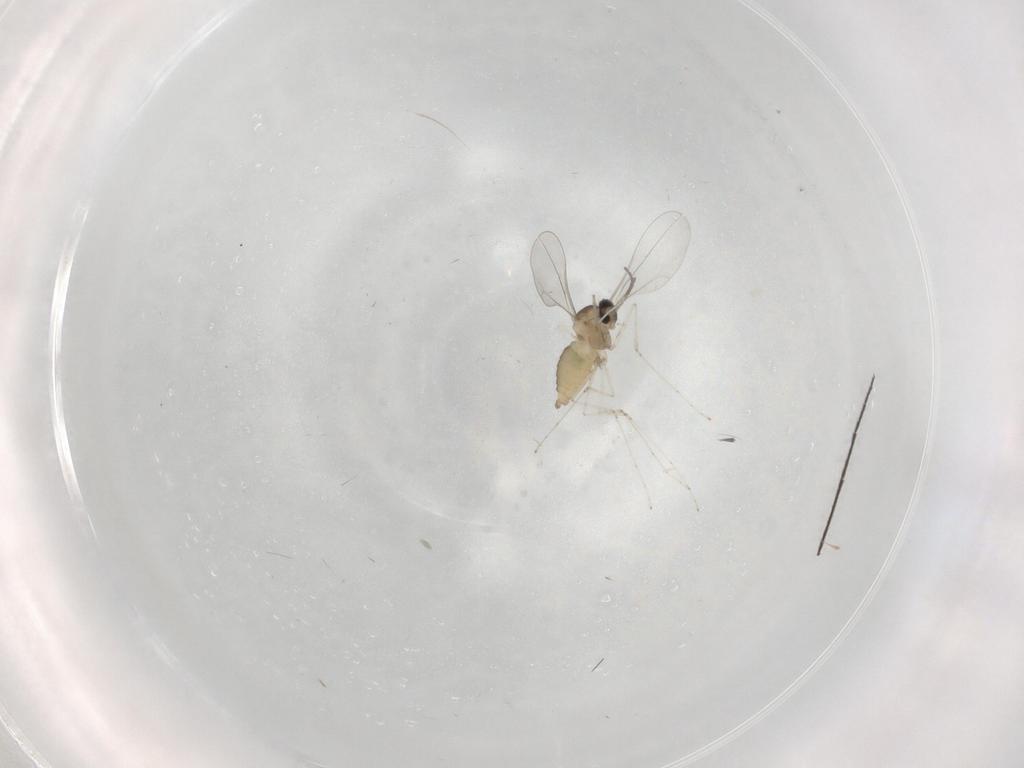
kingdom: Animalia
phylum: Arthropoda
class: Insecta
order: Diptera
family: Cecidomyiidae
